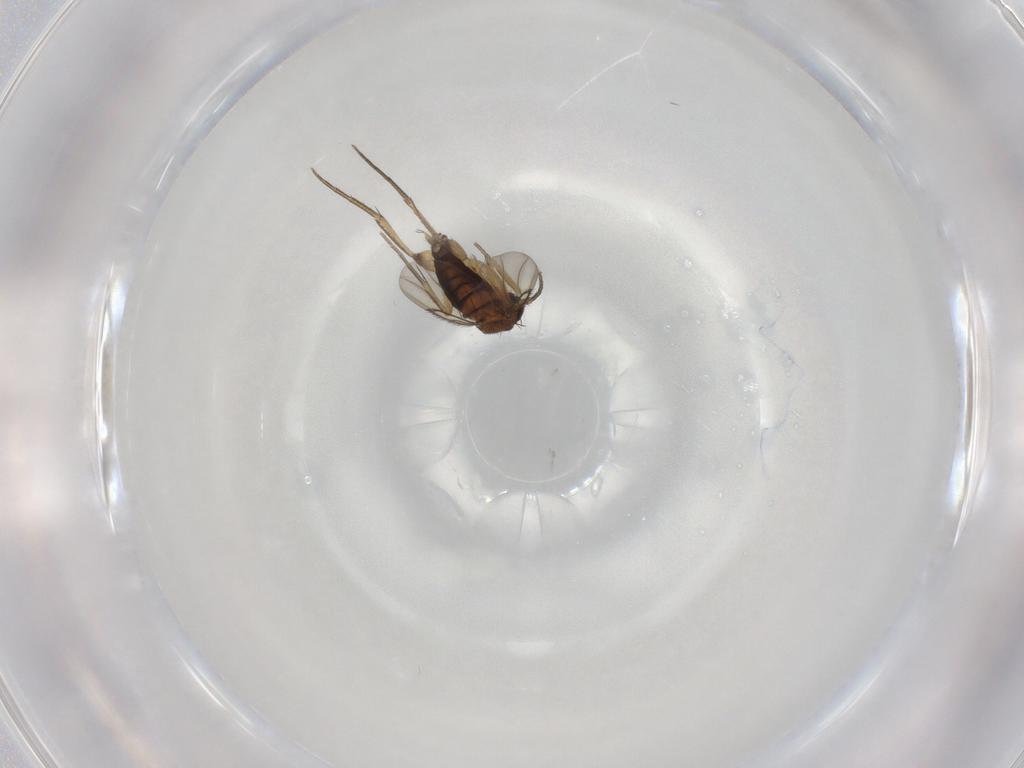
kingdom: Animalia
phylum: Arthropoda
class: Insecta
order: Diptera
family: Phoridae
